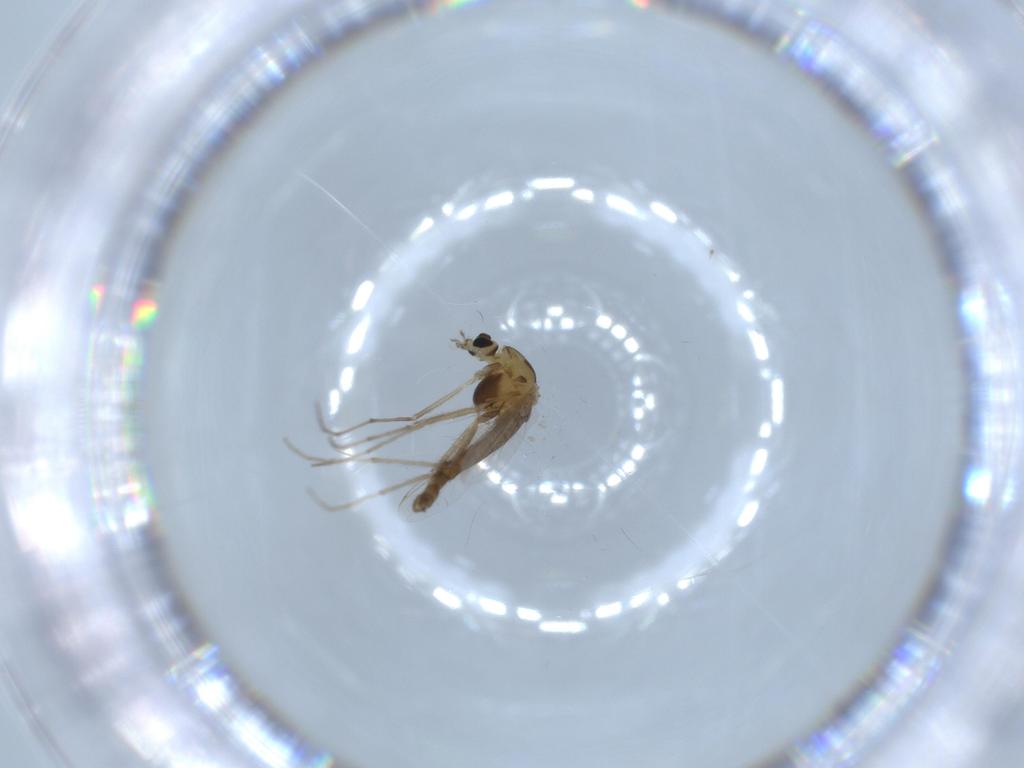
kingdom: Animalia
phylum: Arthropoda
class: Insecta
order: Diptera
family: Chironomidae
